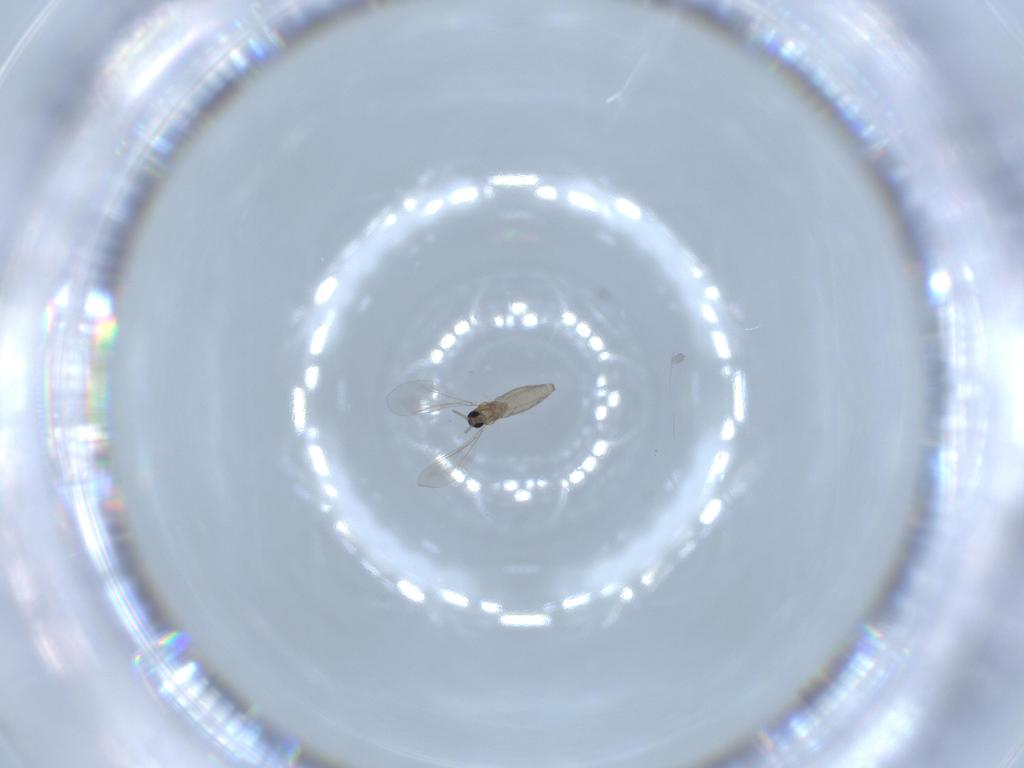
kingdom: Animalia
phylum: Arthropoda
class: Insecta
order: Diptera
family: Cecidomyiidae
